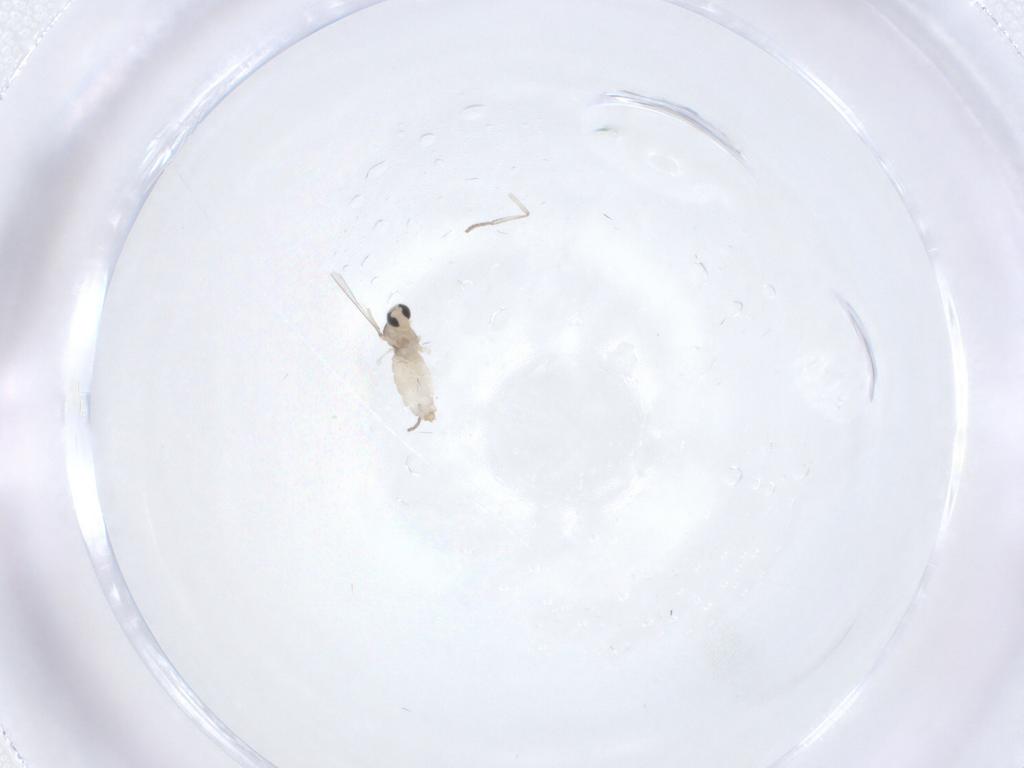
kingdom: Animalia
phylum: Arthropoda
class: Insecta
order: Diptera
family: Cecidomyiidae
